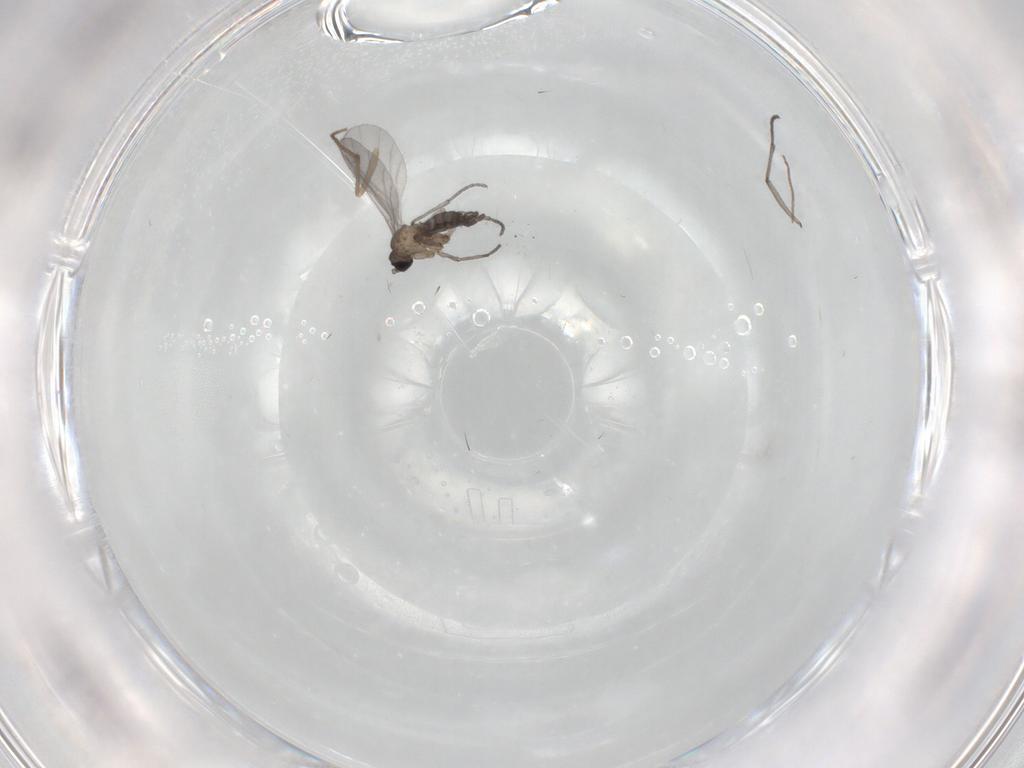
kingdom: Animalia
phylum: Arthropoda
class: Insecta
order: Diptera
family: Sciaridae
